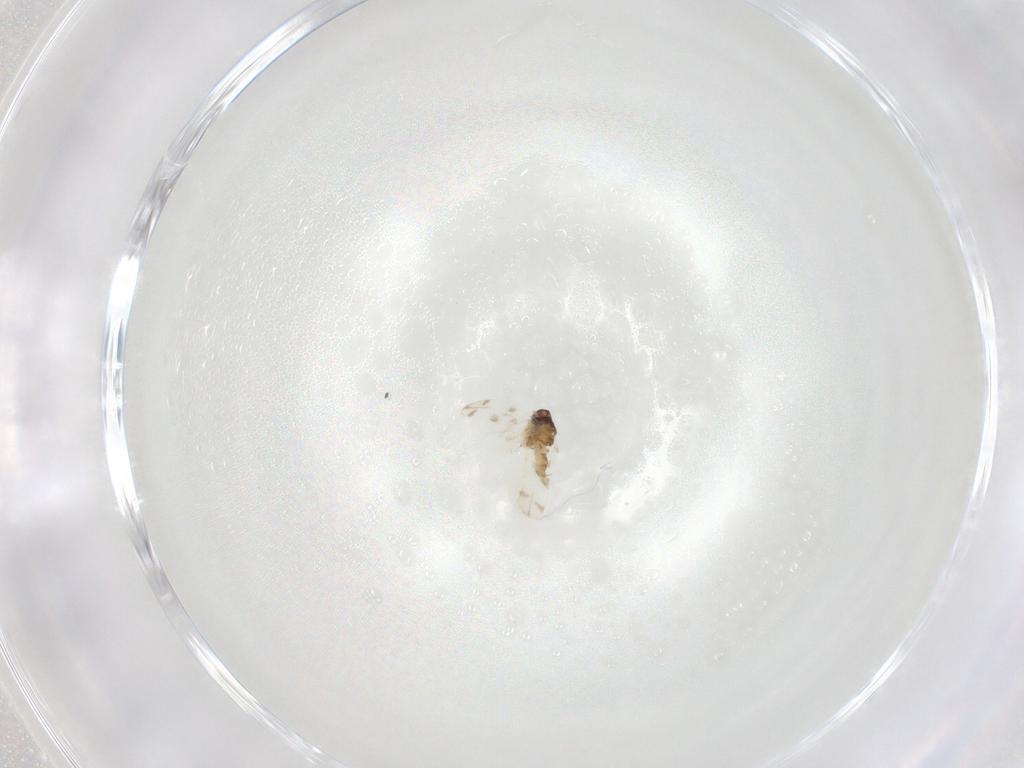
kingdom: Animalia
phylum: Arthropoda
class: Insecta
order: Hemiptera
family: Aleyrodidae
